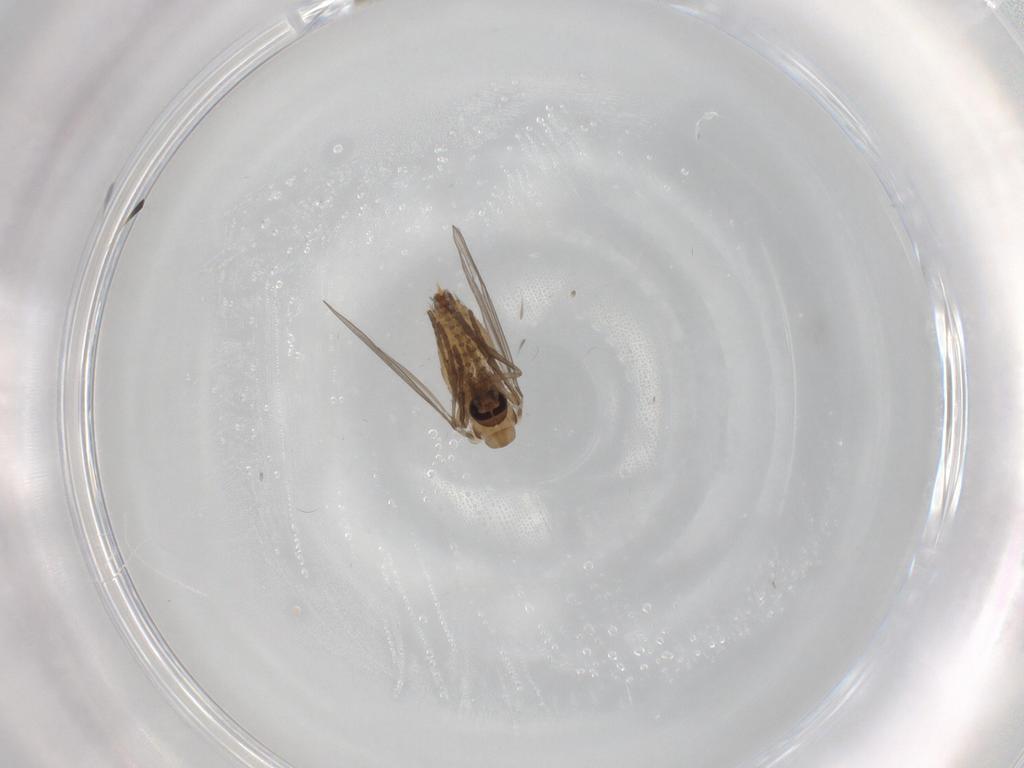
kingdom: Animalia
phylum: Arthropoda
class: Insecta
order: Diptera
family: Psychodidae
